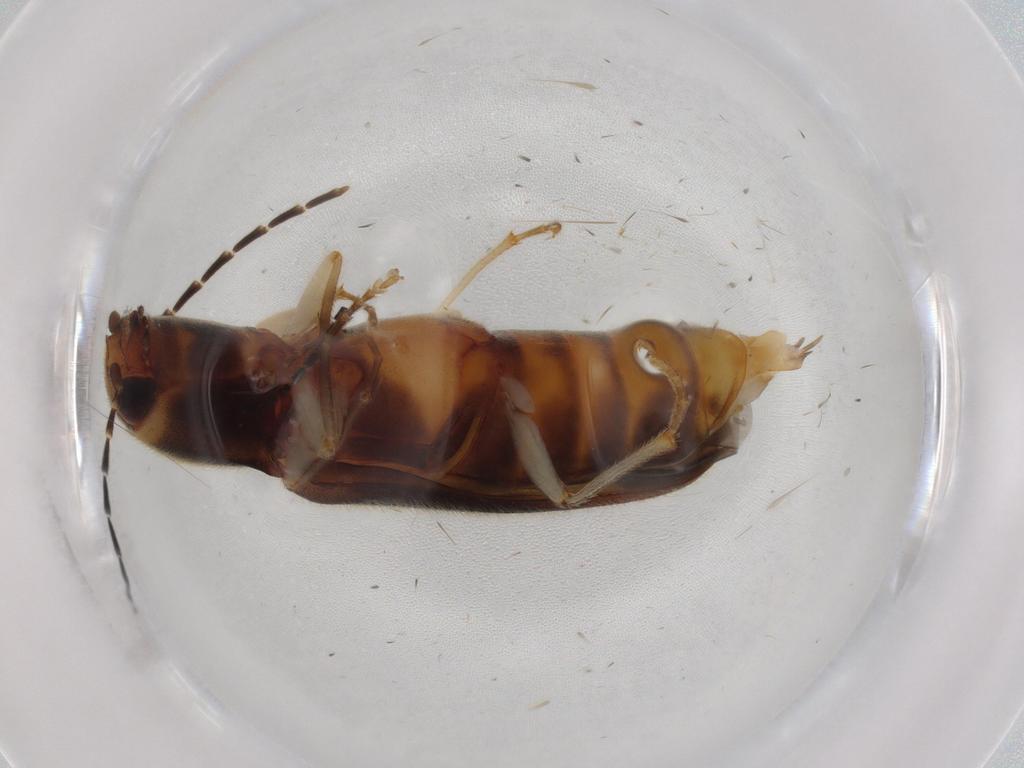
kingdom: Animalia
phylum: Arthropoda
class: Insecta
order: Coleoptera
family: Elateridae
